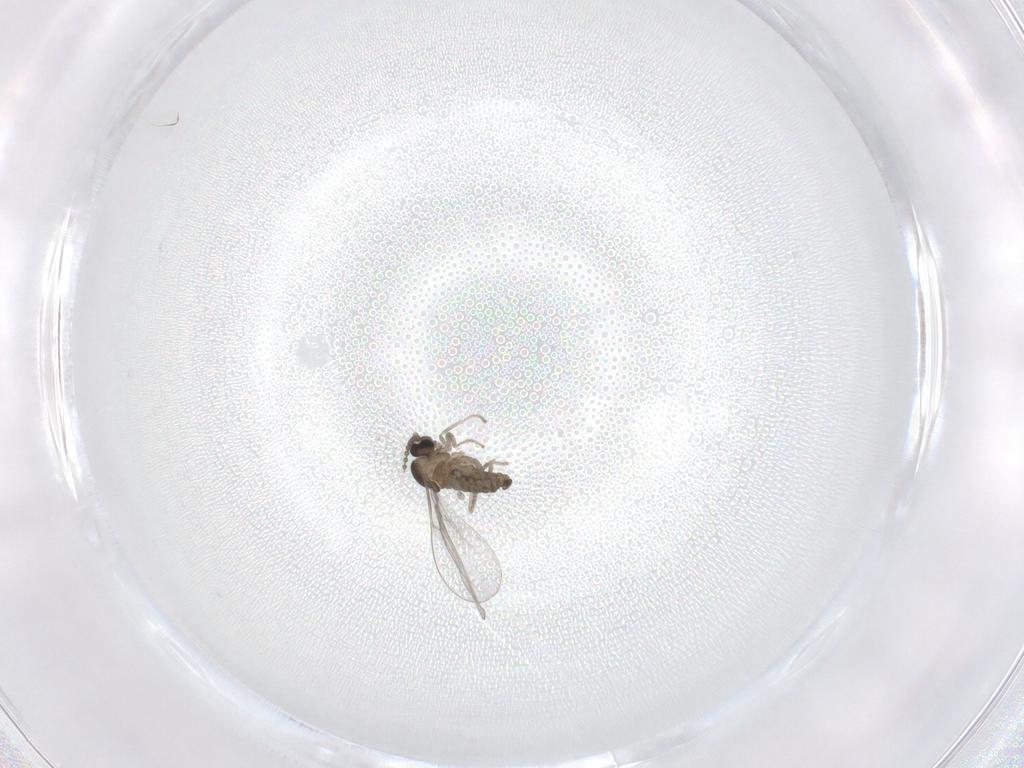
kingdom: Animalia
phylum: Arthropoda
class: Insecta
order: Diptera
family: Cecidomyiidae
